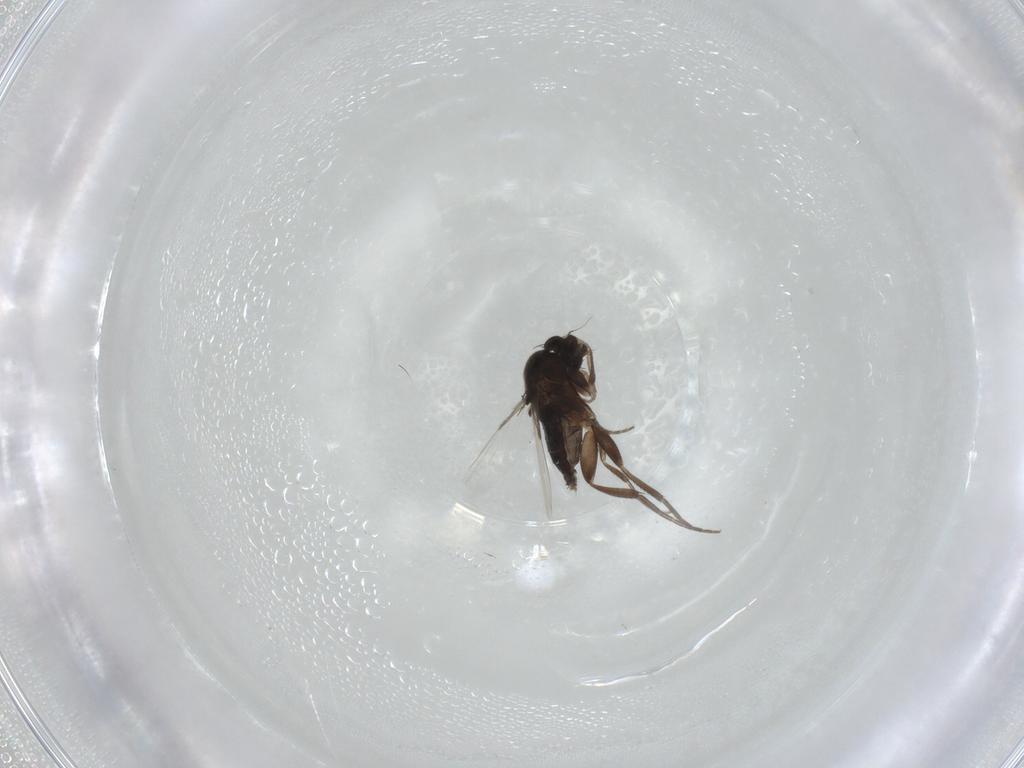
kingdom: Animalia
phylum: Arthropoda
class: Insecta
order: Diptera
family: Phoridae
